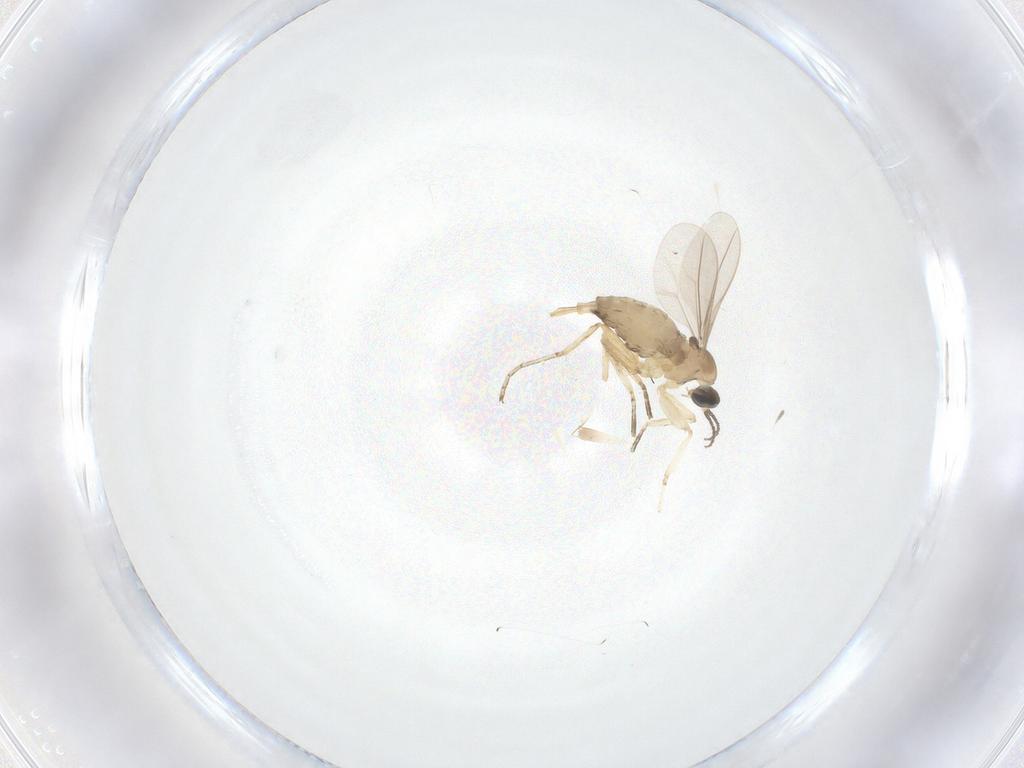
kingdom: Animalia
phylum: Arthropoda
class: Insecta
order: Diptera
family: Cecidomyiidae
